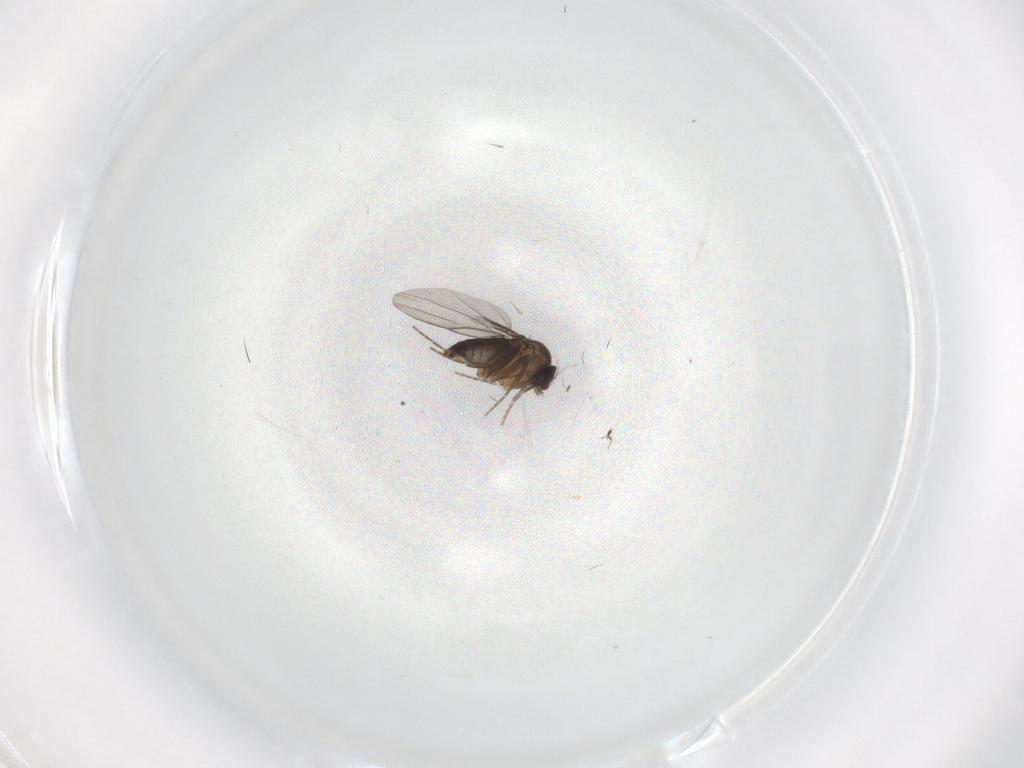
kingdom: Animalia
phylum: Arthropoda
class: Insecta
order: Diptera
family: Phoridae
